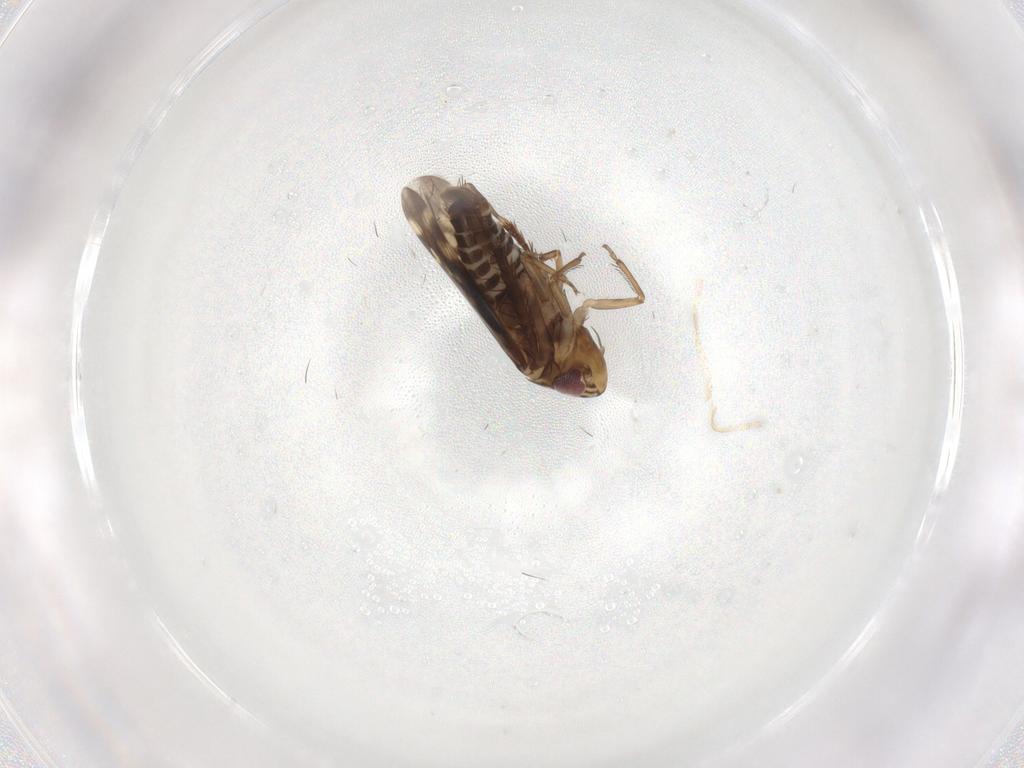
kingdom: Animalia
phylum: Arthropoda
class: Insecta
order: Hemiptera
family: Cicadellidae
